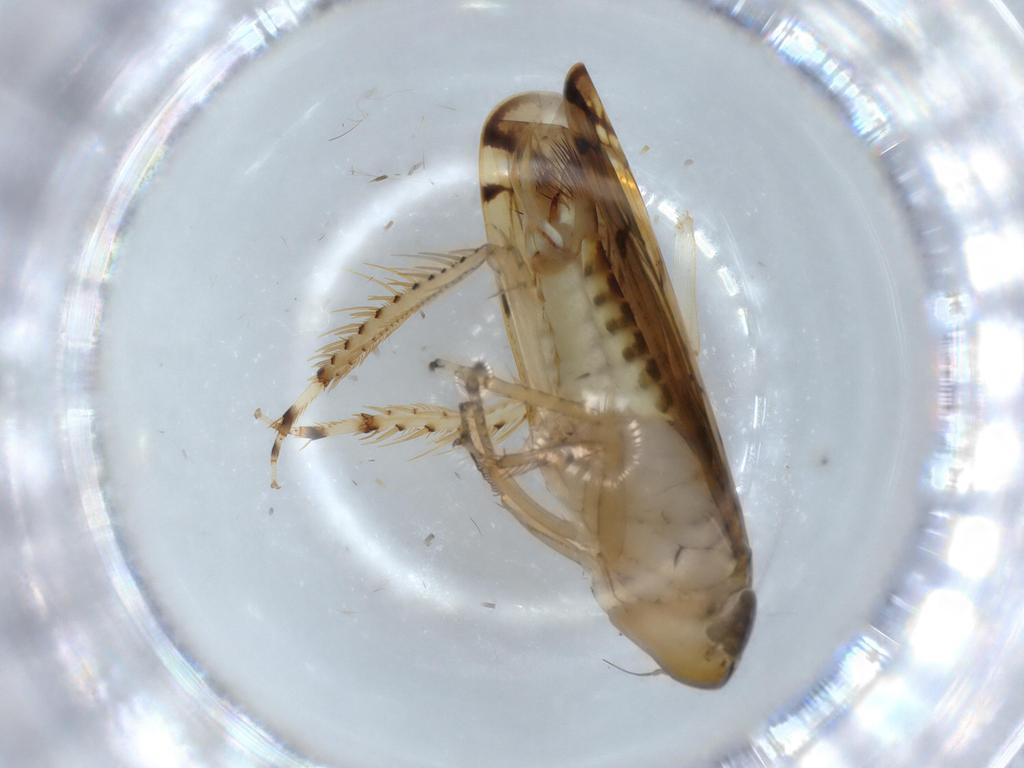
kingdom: Animalia
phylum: Arthropoda
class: Insecta
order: Hemiptera
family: Cicadellidae
